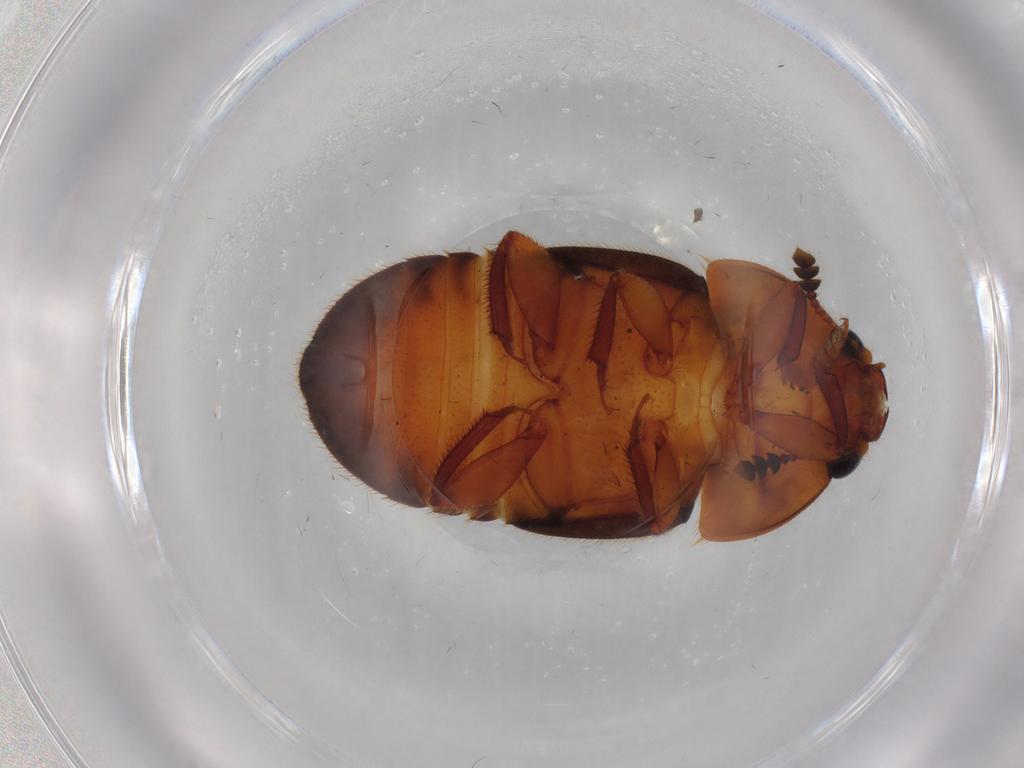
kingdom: Animalia
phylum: Arthropoda
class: Insecta
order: Coleoptera
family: Nitidulidae
